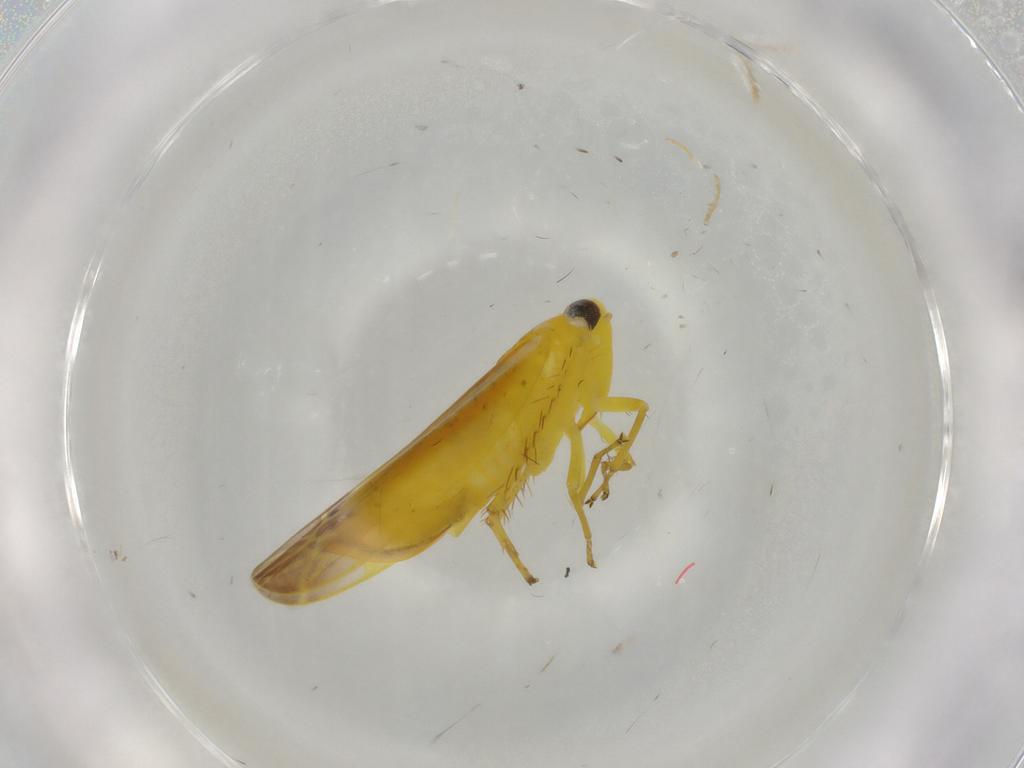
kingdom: Animalia
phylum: Arthropoda
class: Insecta
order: Hemiptera
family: Cicadellidae
